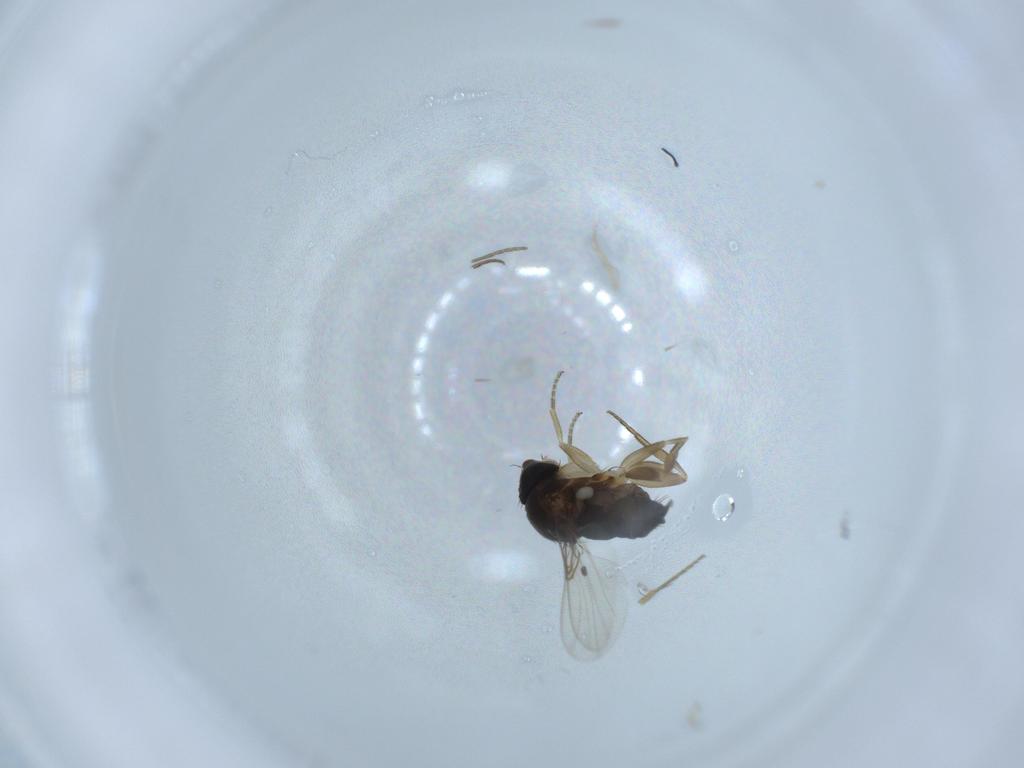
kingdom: Animalia
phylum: Arthropoda
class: Insecta
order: Diptera
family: Phoridae
